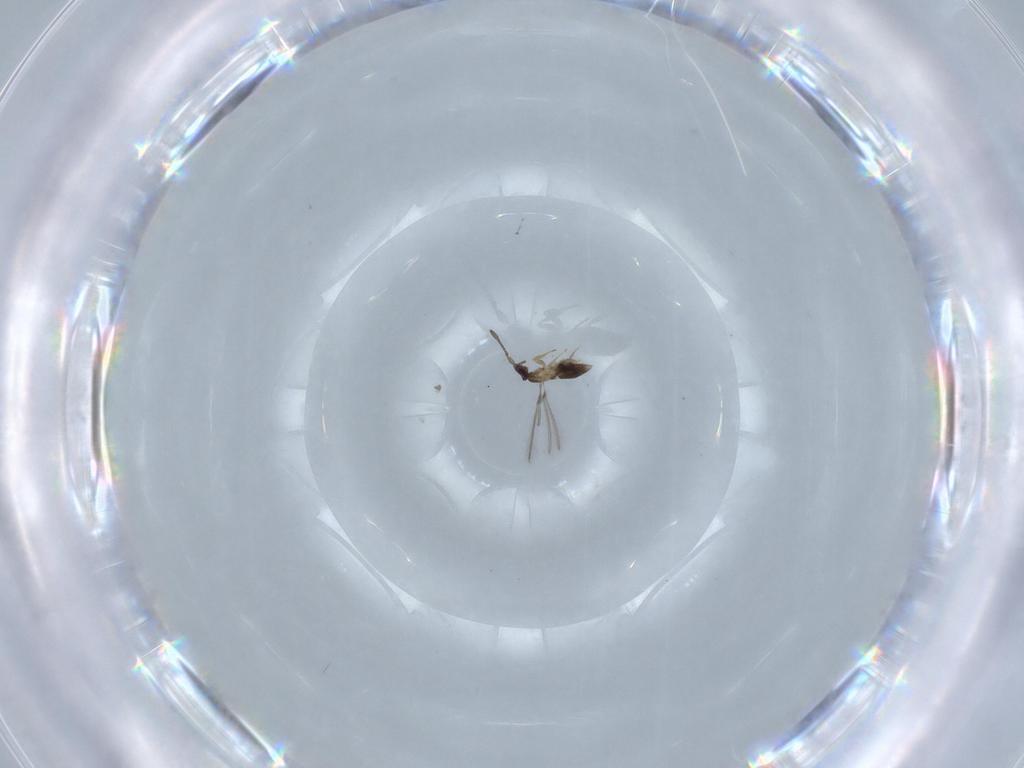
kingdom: Animalia
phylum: Arthropoda
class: Insecta
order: Hymenoptera
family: Mymaridae
